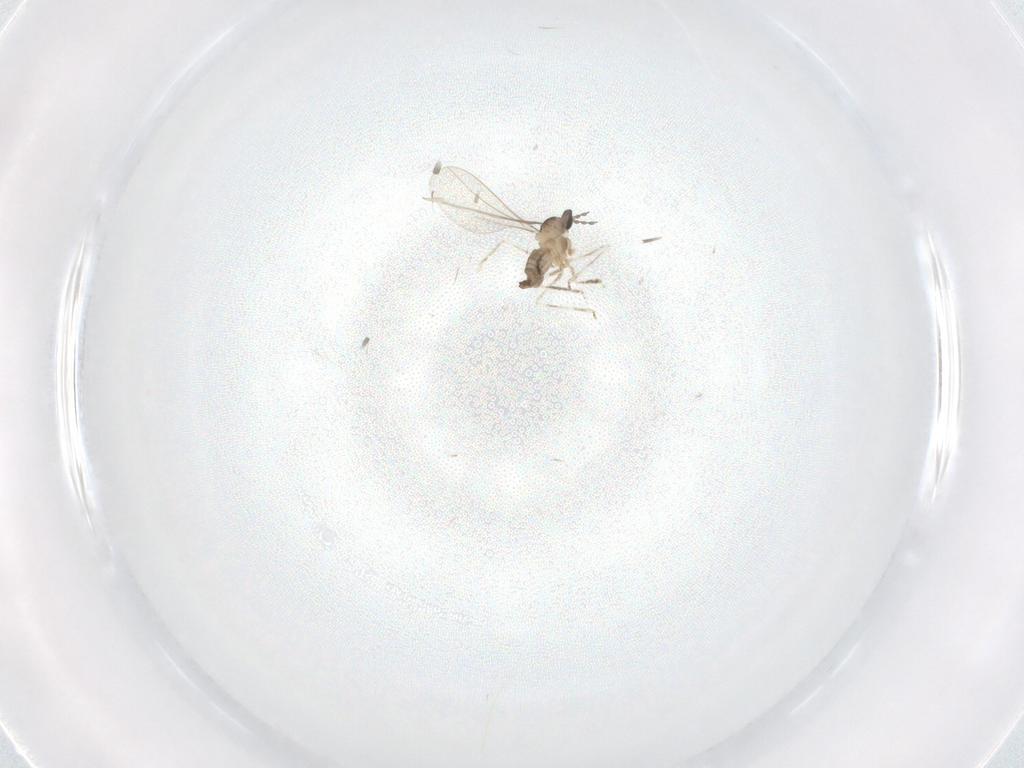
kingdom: Animalia
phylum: Arthropoda
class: Insecta
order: Diptera
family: Cecidomyiidae
